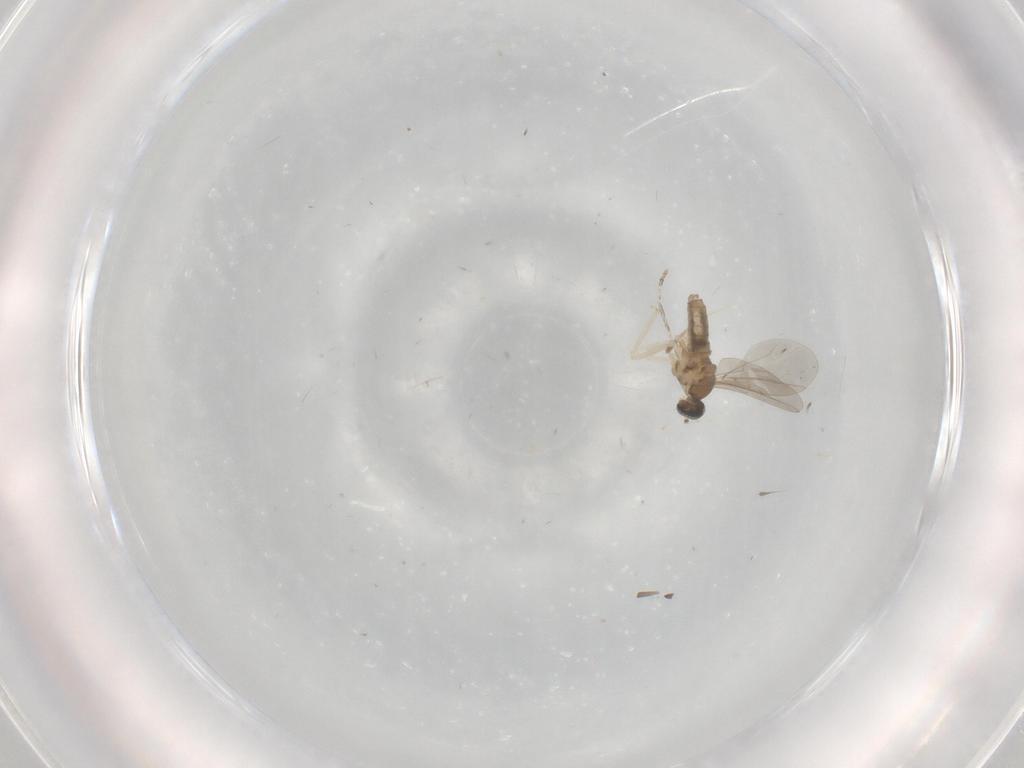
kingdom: Animalia
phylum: Arthropoda
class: Insecta
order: Diptera
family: Cecidomyiidae
